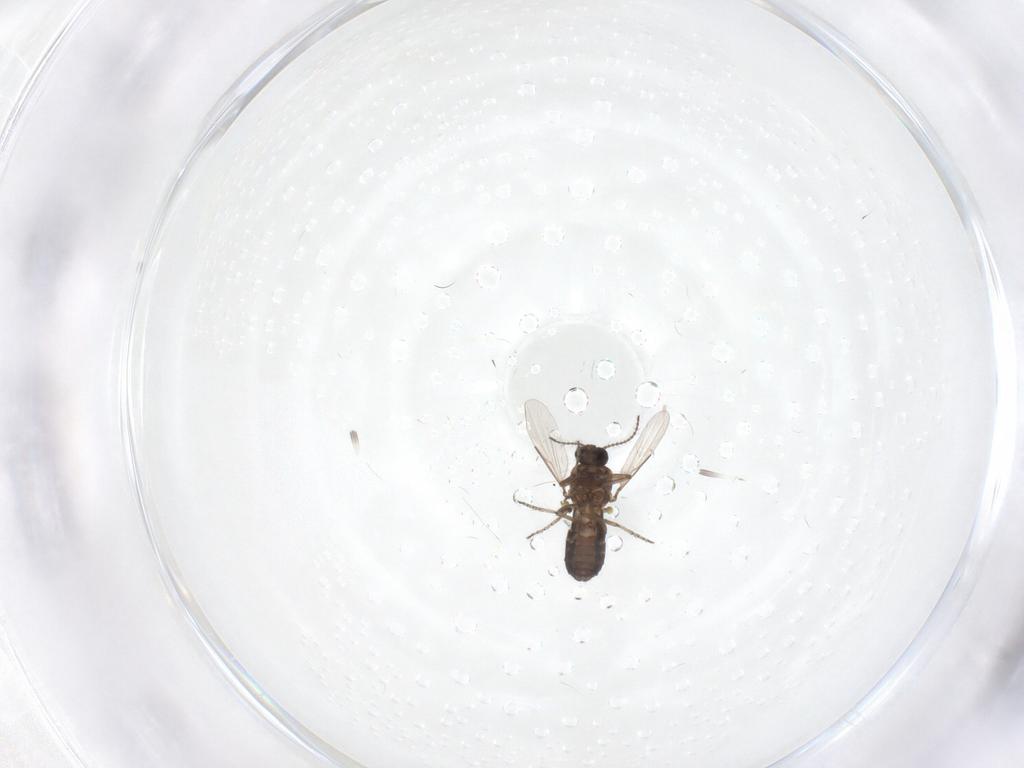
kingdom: Animalia
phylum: Arthropoda
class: Insecta
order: Diptera
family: Ceratopogonidae
